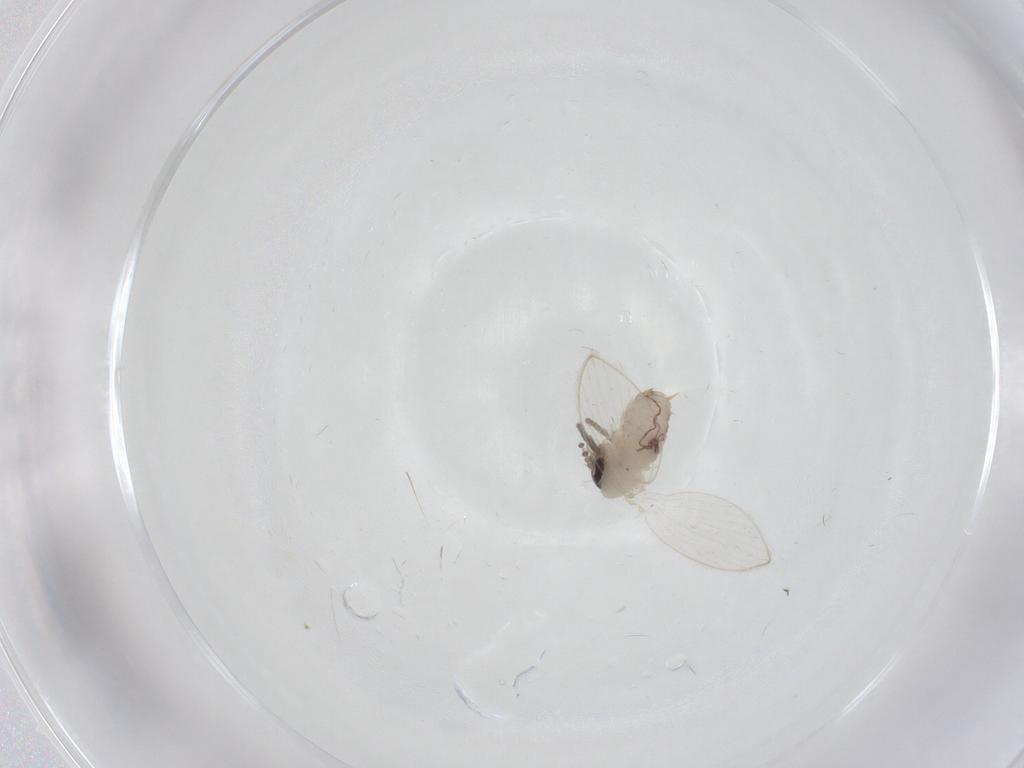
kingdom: Animalia
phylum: Arthropoda
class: Insecta
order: Diptera
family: Psychodidae
